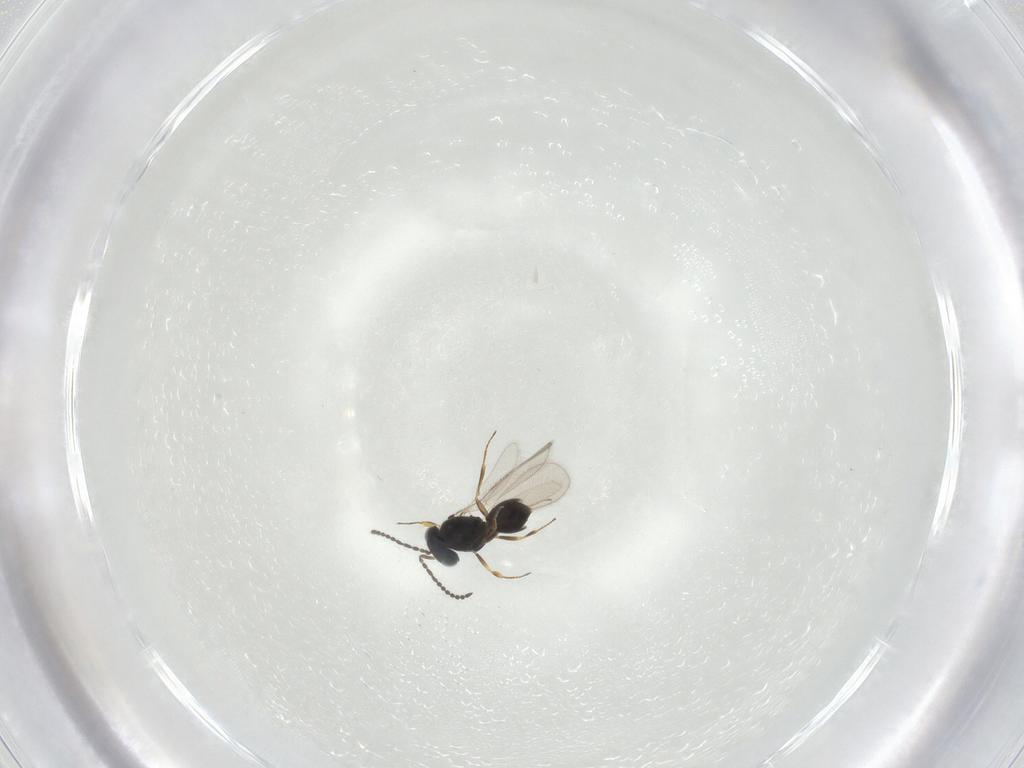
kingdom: Animalia
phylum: Arthropoda
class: Insecta
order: Hymenoptera
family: Scelionidae
